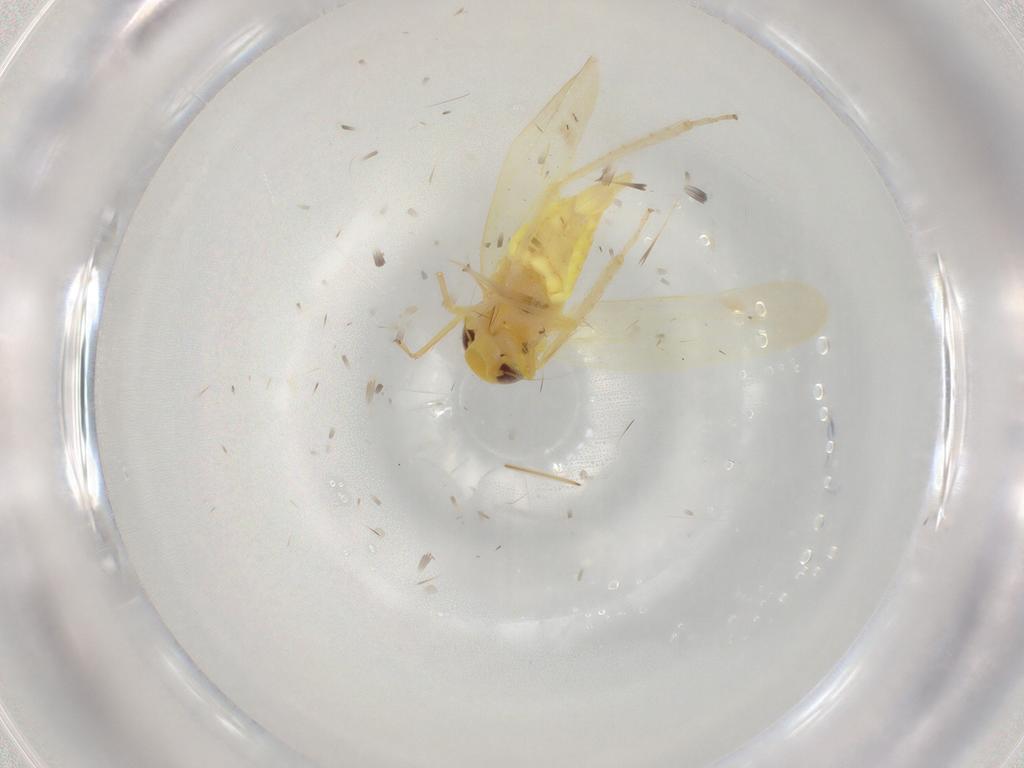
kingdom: Animalia
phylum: Arthropoda
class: Insecta
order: Hemiptera
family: Cicadellidae
